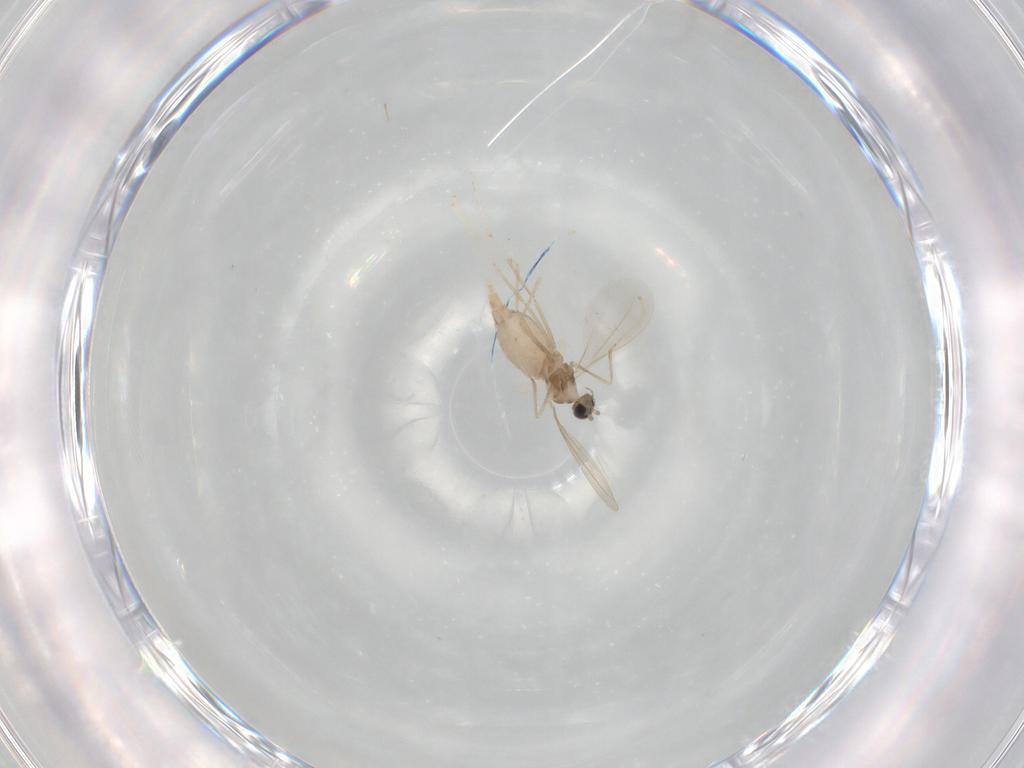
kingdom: Animalia
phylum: Arthropoda
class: Insecta
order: Diptera
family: Cecidomyiidae
